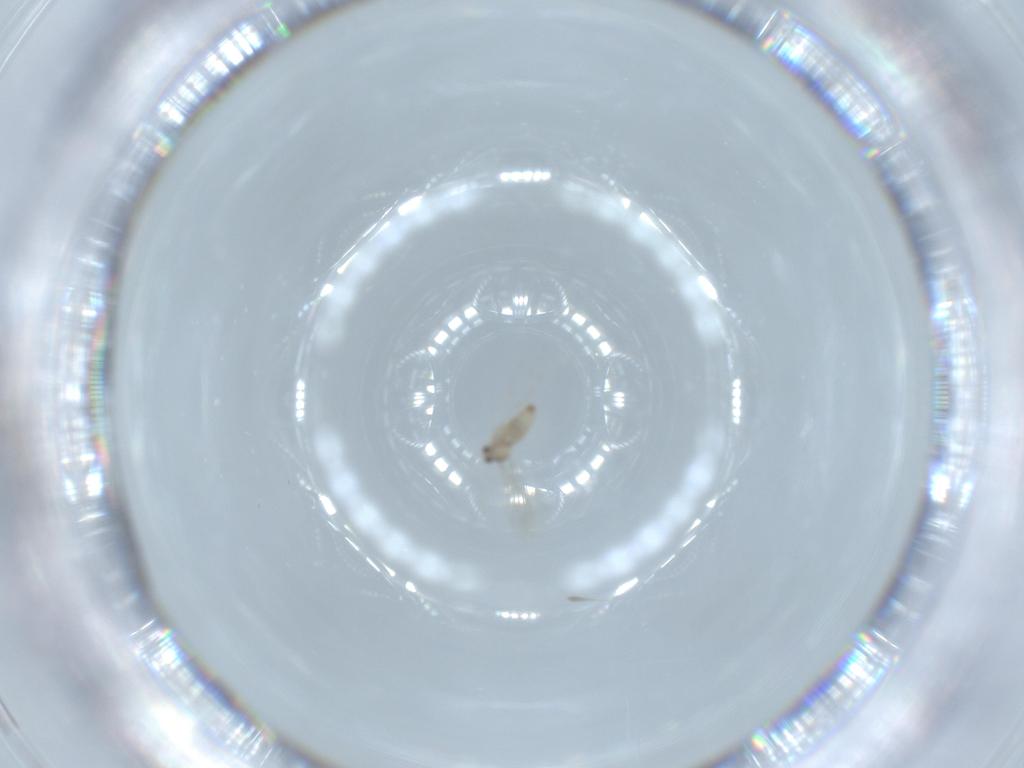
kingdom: Animalia
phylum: Arthropoda
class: Insecta
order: Diptera
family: Cecidomyiidae
